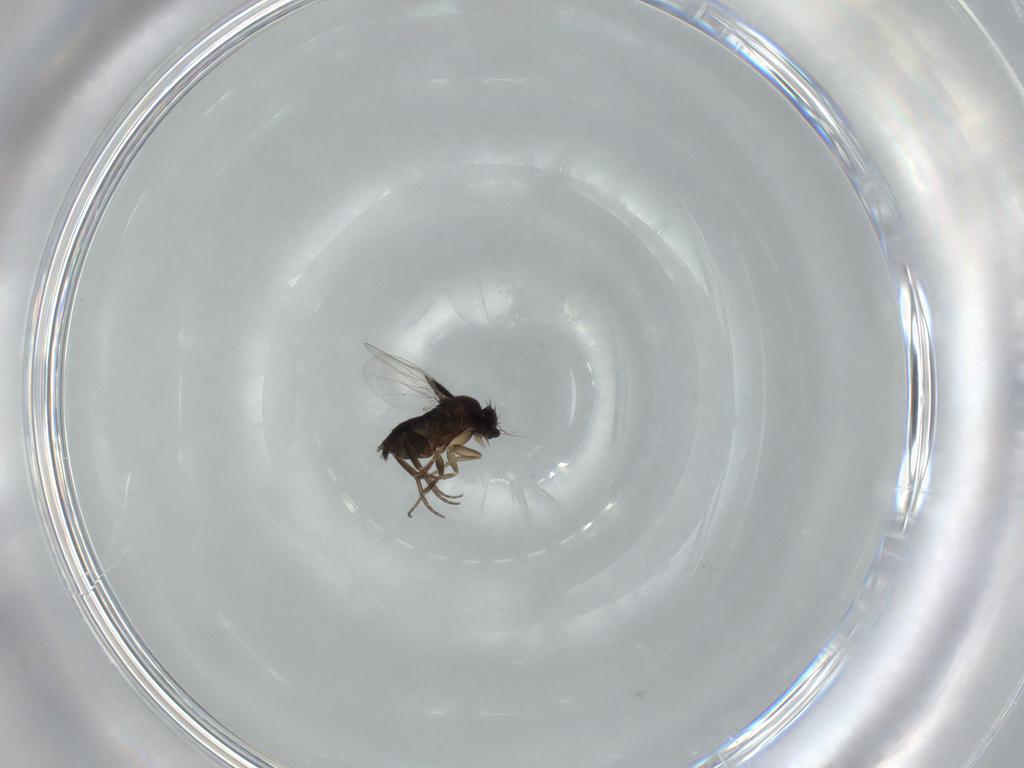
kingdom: Animalia
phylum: Arthropoda
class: Insecta
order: Diptera
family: Phoridae
